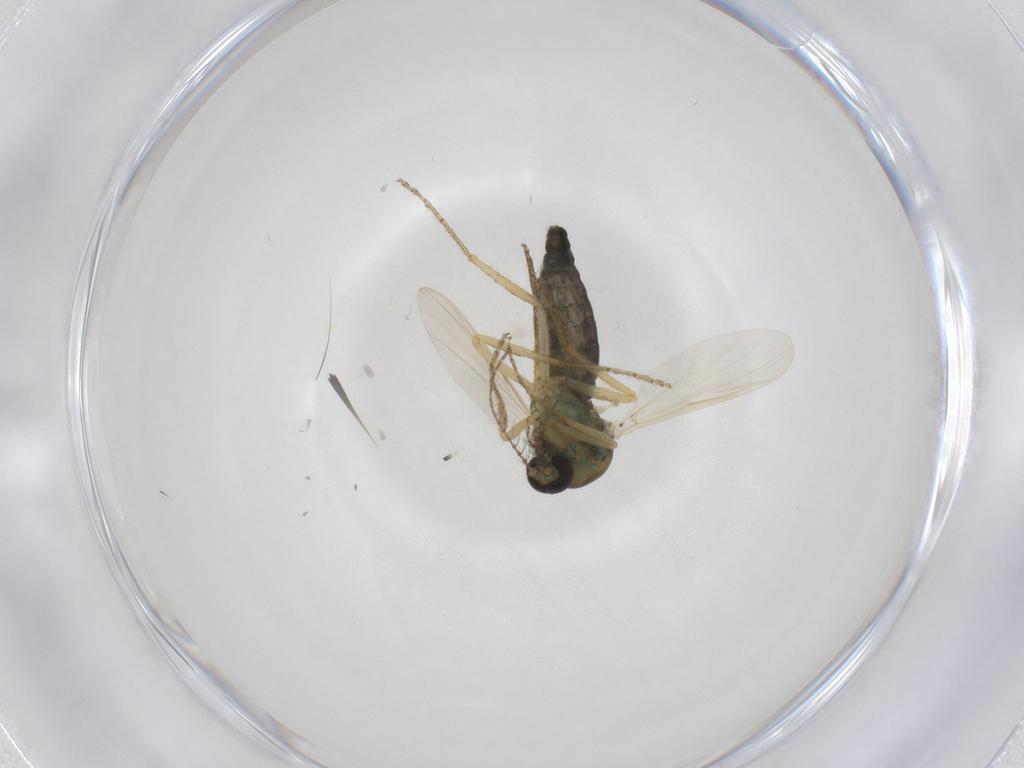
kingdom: Animalia
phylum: Arthropoda
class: Insecta
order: Diptera
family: Ceratopogonidae
